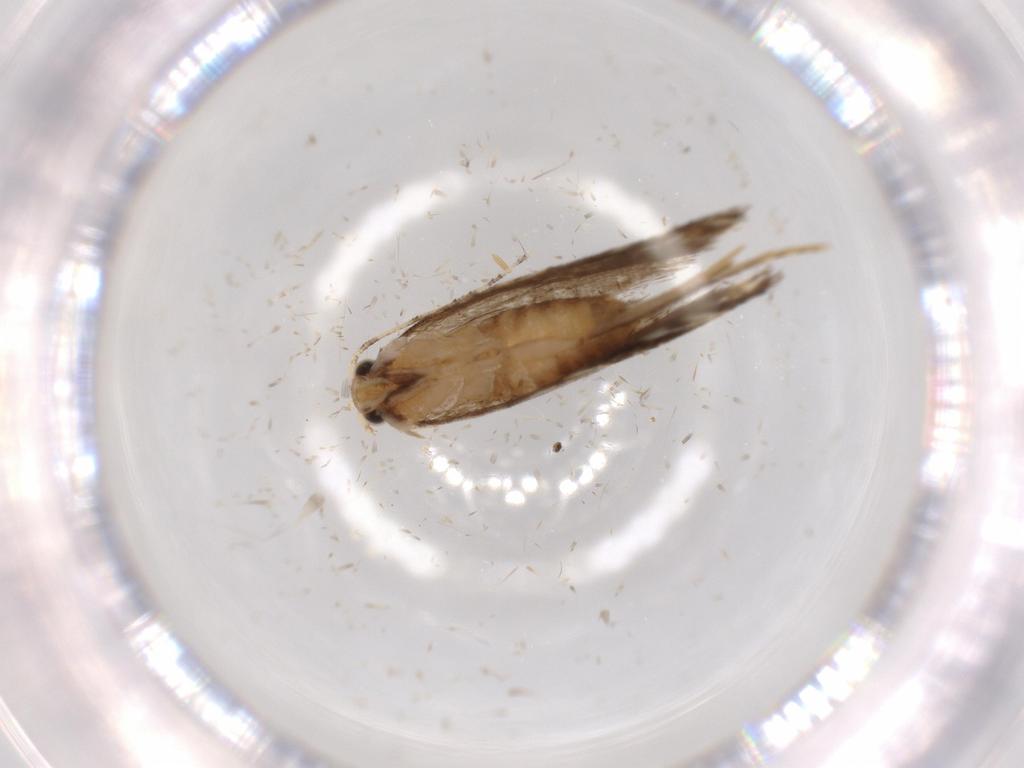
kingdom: Animalia
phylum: Arthropoda
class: Insecta
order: Lepidoptera
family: Tineidae
